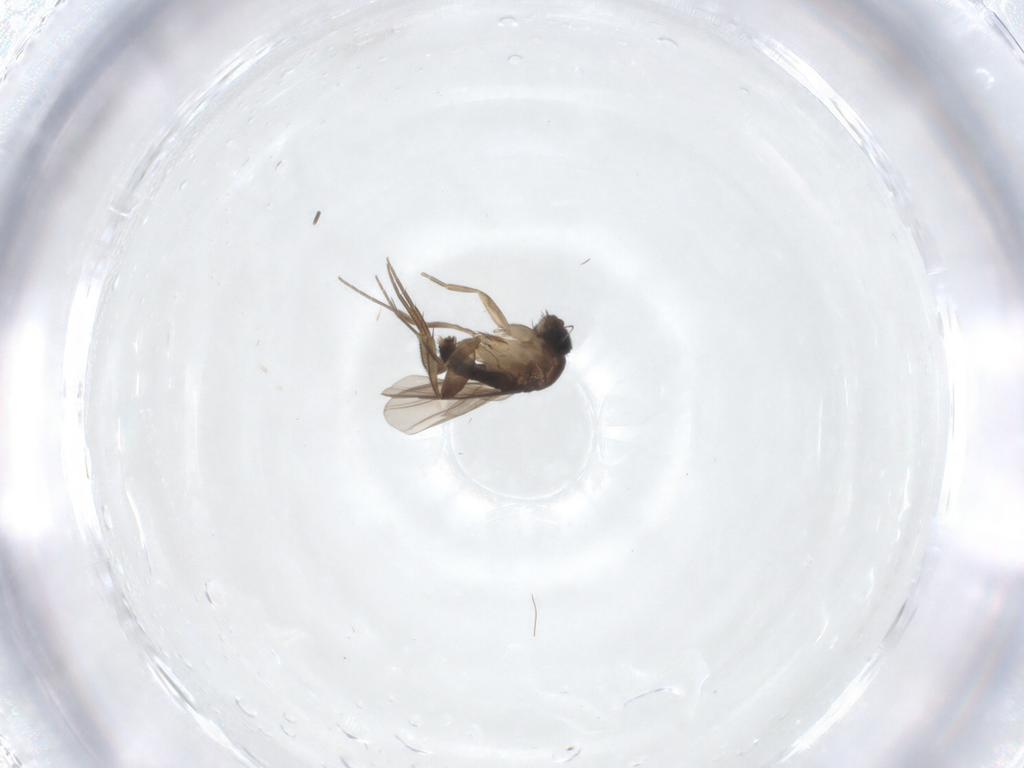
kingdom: Animalia
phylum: Arthropoda
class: Insecta
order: Diptera
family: Phoridae
